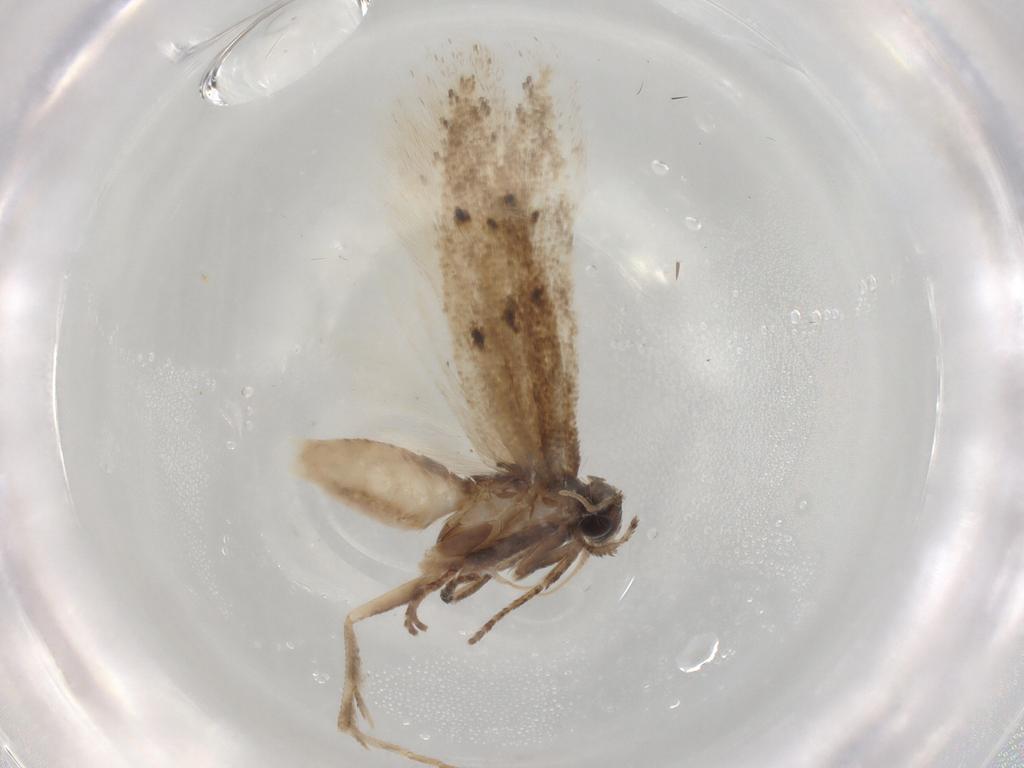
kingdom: Animalia
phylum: Arthropoda
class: Insecta
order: Lepidoptera
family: Gelechiidae
